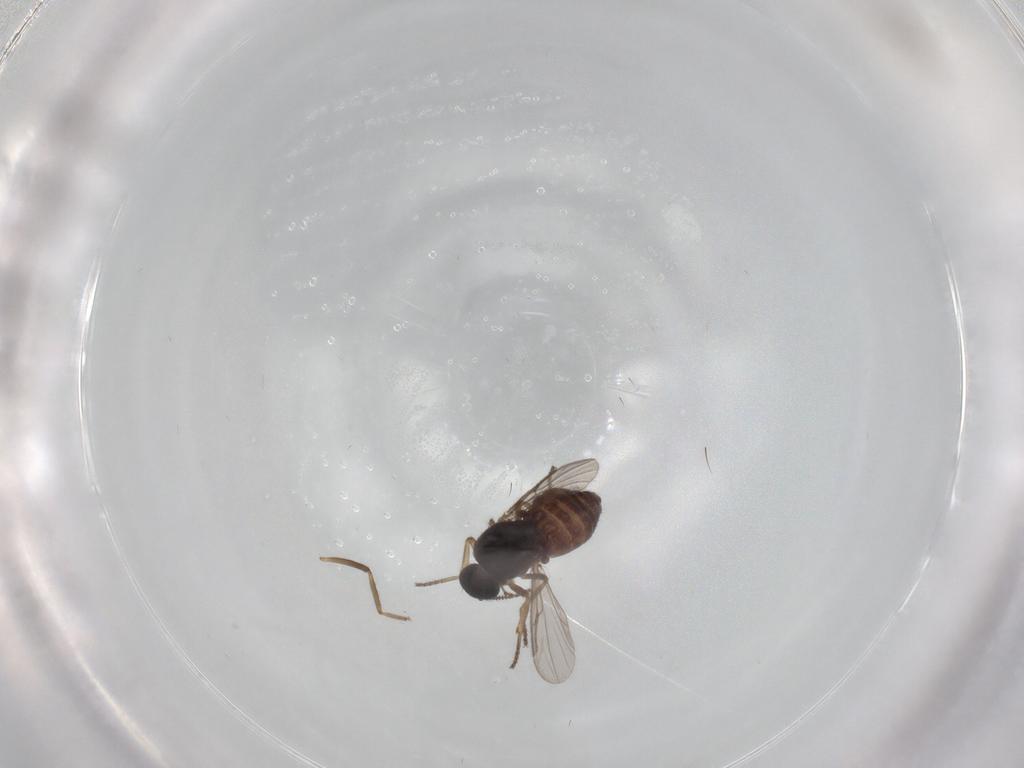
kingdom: Animalia
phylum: Arthropoda
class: Insecta
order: Diptera
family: Ceratopogonidae
